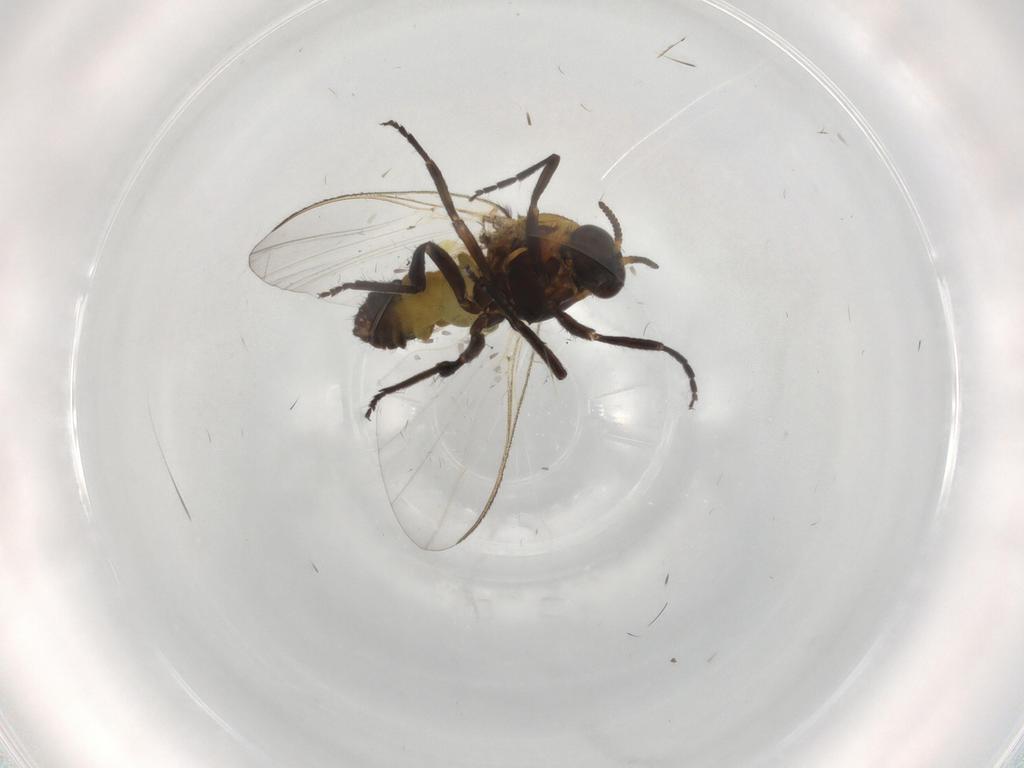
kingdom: Animalia
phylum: Arthropoda
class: Insecta
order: Diptera
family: Simuliidae
